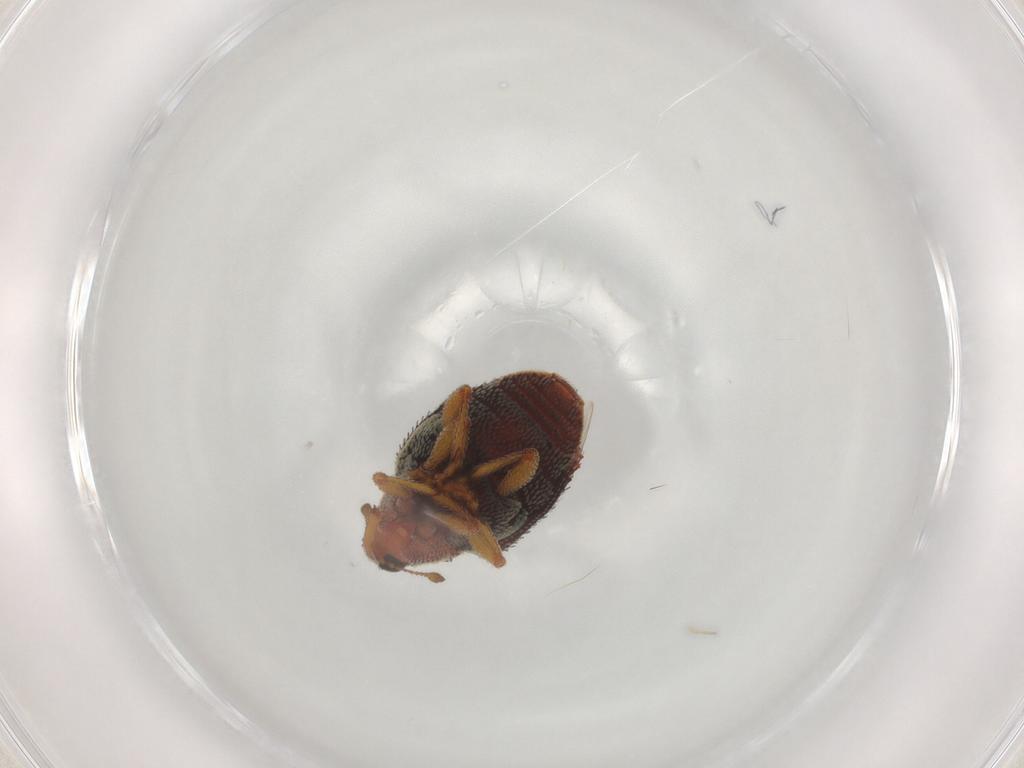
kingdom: Animalia
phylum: Arthropoda
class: Insecta
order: Coleoptera
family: Curculionidae
